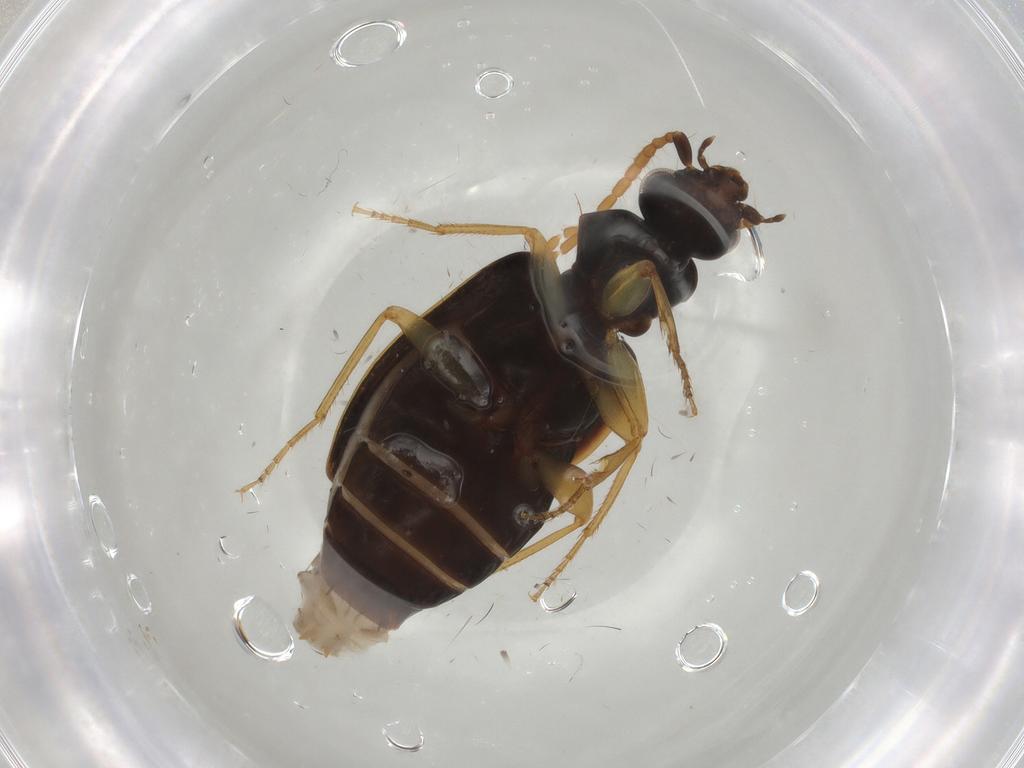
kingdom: Animalia
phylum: Arthropoda
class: Insecta
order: Coleoptera
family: Carabidae
